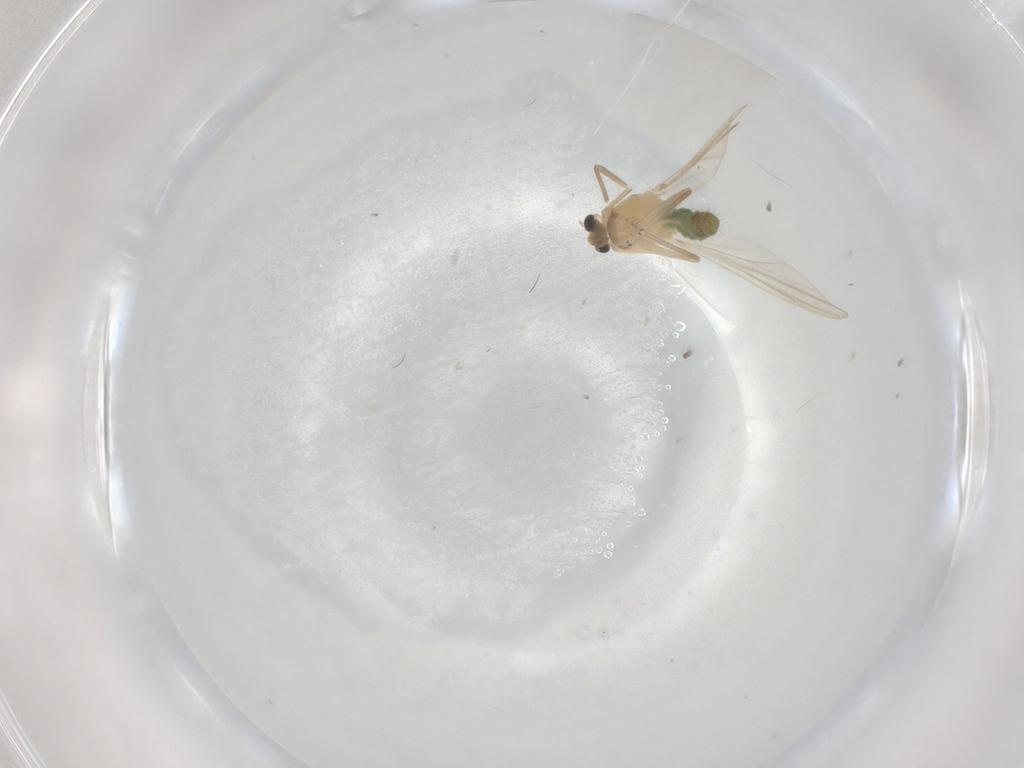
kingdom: Animalia
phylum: Arthropoda
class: Insecta
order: Diptera
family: Chironomidae
